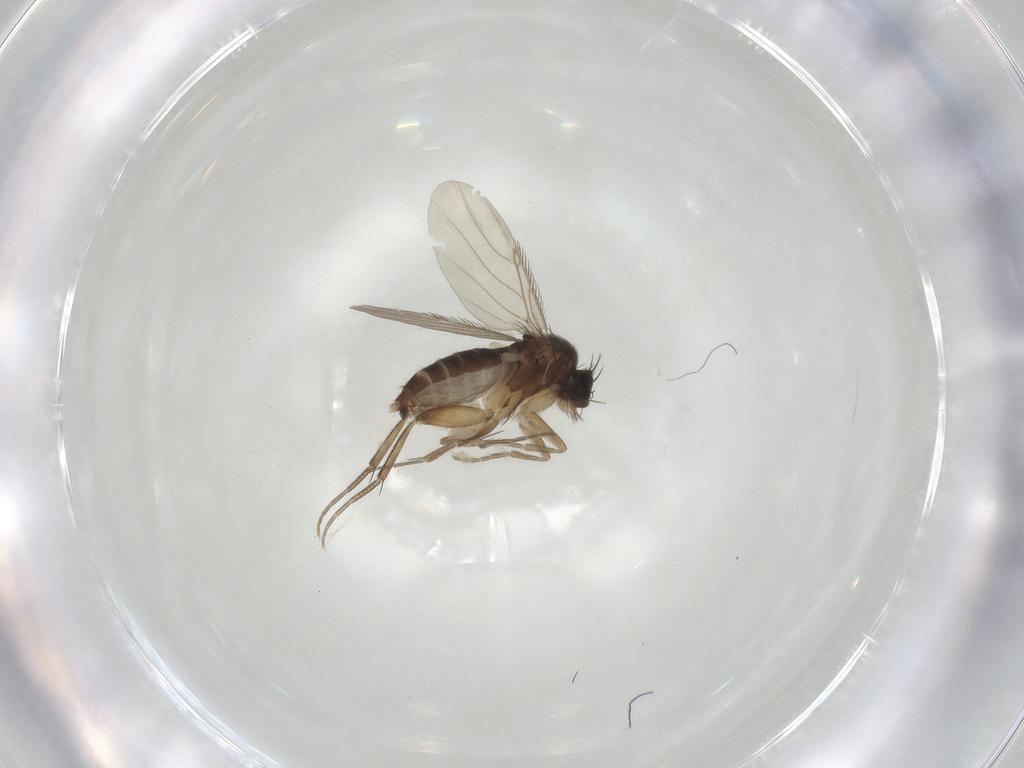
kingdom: Animalia
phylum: Arthropoda
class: Insecta
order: Diptera
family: Phoridae
